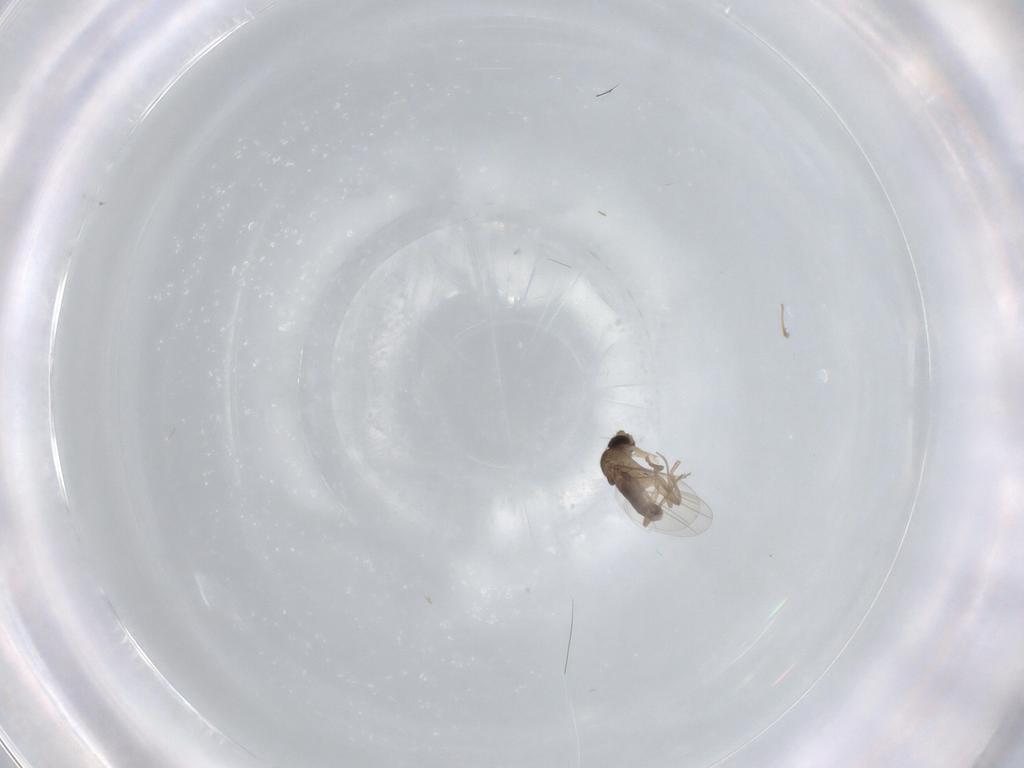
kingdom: Animalia
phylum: Arthropoda
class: Insecta
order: Diptera
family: Phoridae
